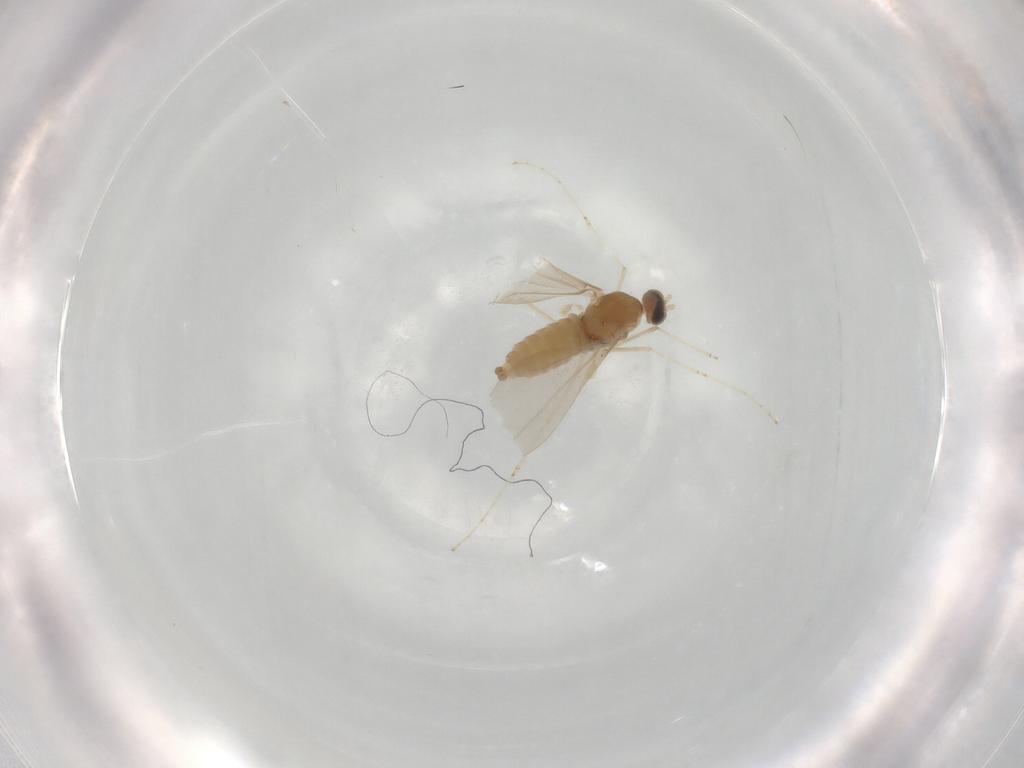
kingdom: Animalia
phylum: Arthropoda
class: Insecta
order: Diptera
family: Cecidomyiidae
